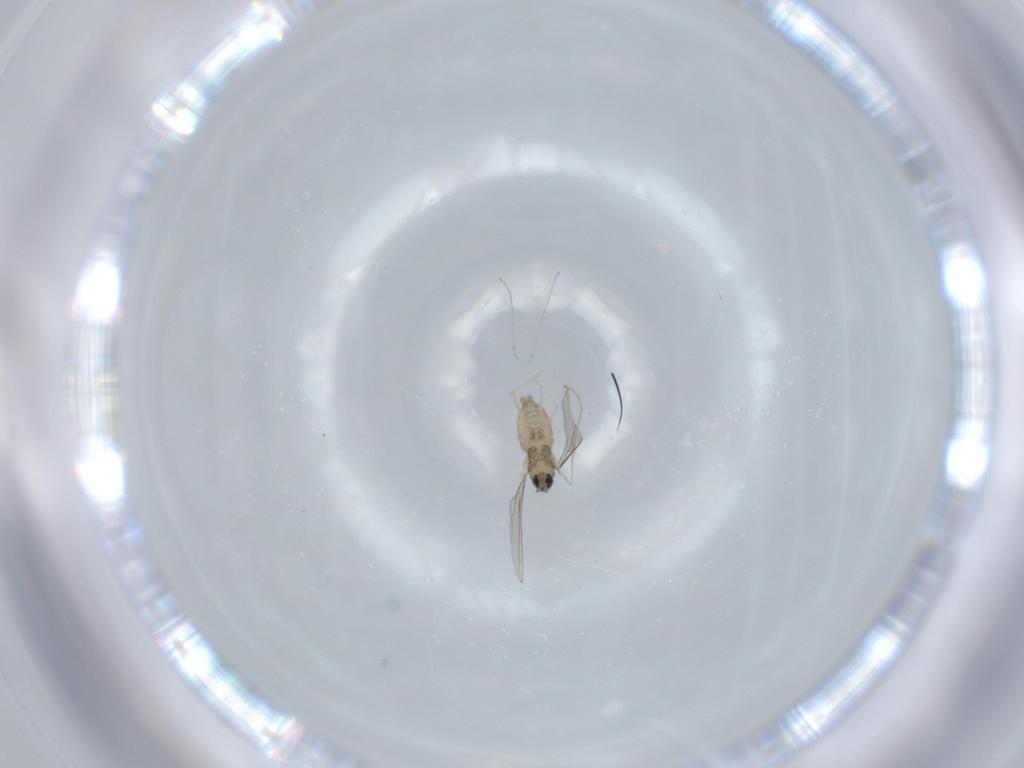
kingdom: Animalia
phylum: Arthropoda
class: Insecta
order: Diptera
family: Cecidomyiidae
